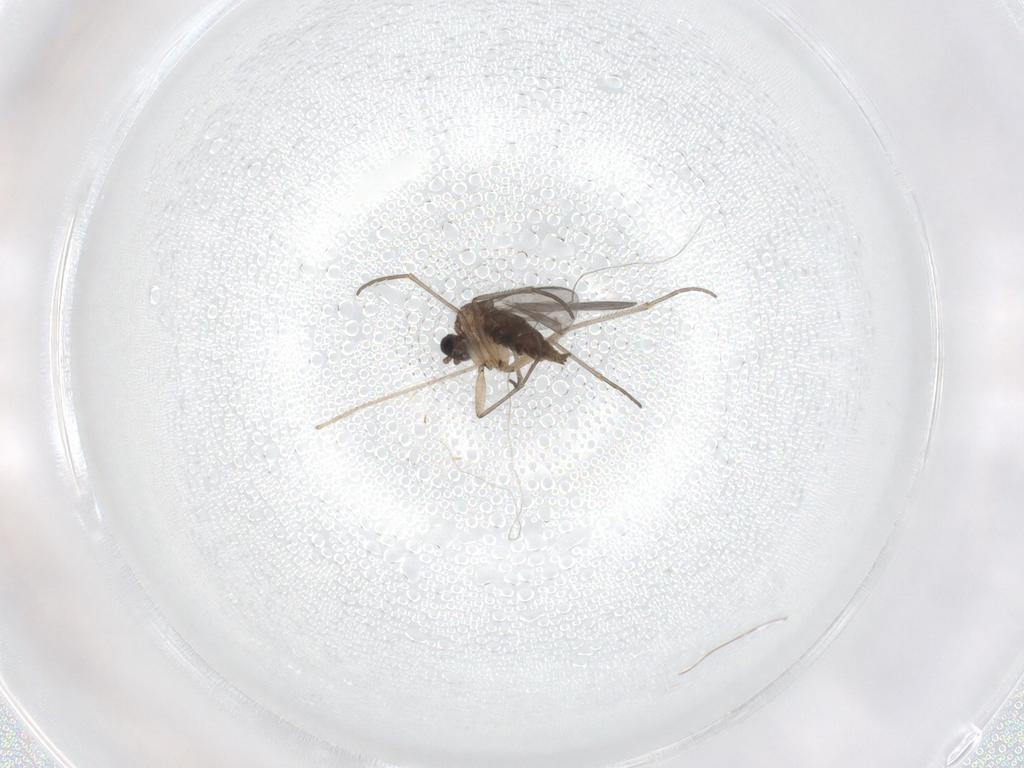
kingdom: Animalia
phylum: Arthropoda
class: Insecta
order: Diptera
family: Sciaridae
